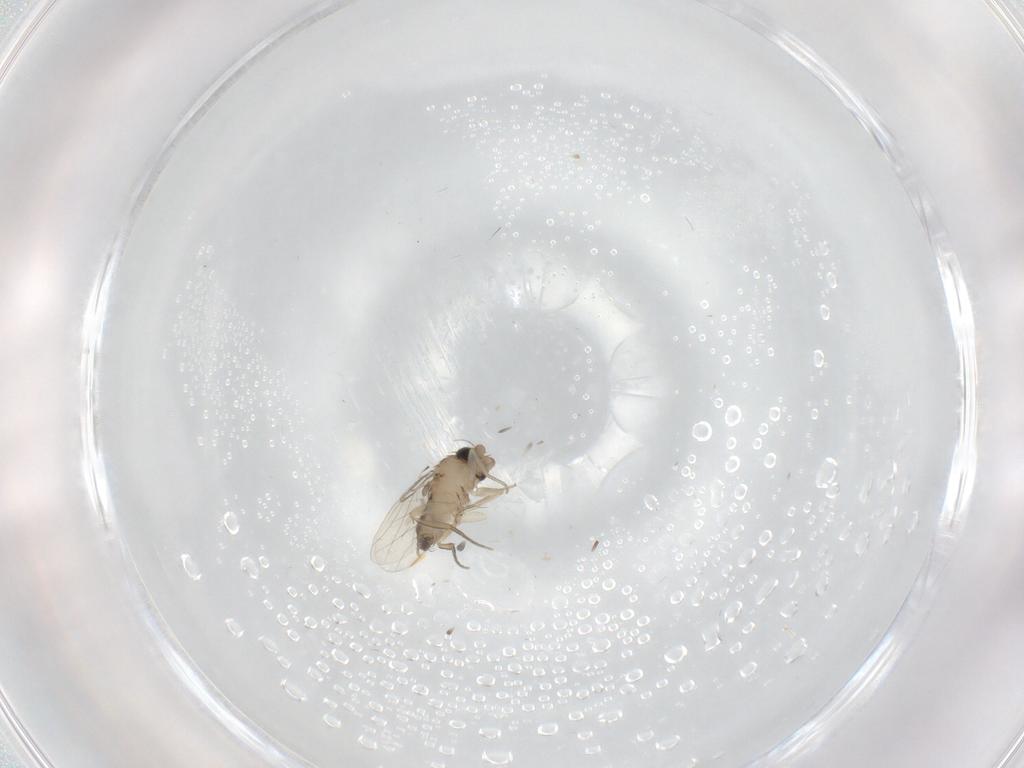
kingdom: Animalia
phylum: Arthropoda
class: Insecta
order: Diptera
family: Phoridae
